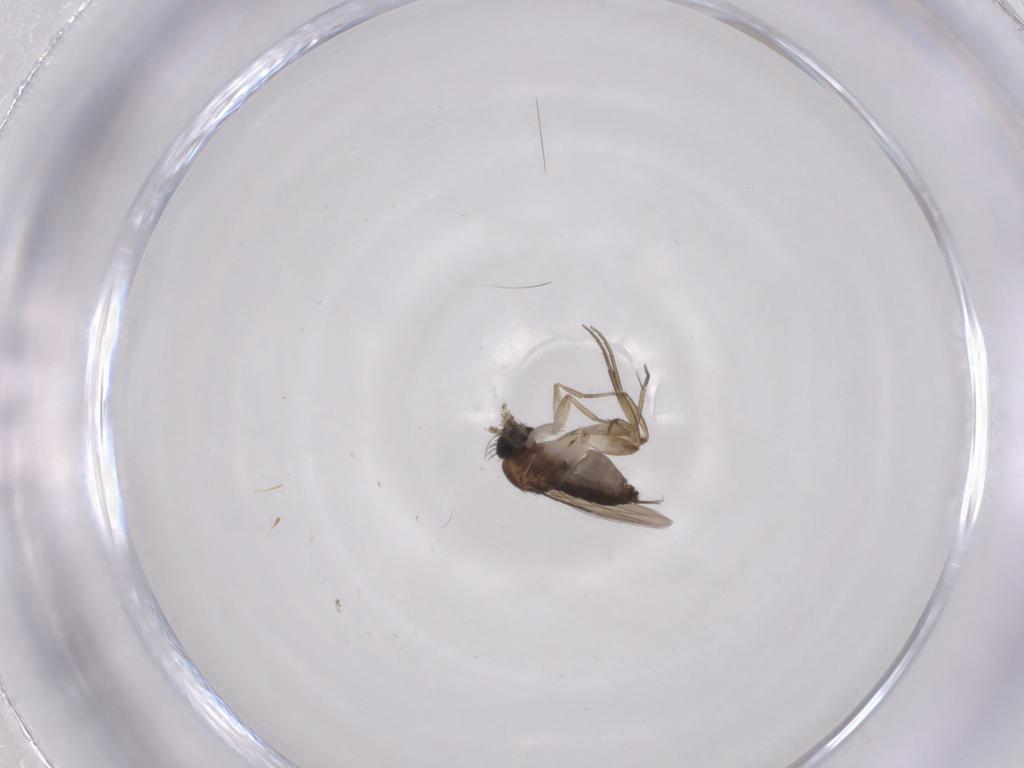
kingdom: Animalia
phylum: Arthropoda
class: Insecta
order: Diptera
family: Phoridae
